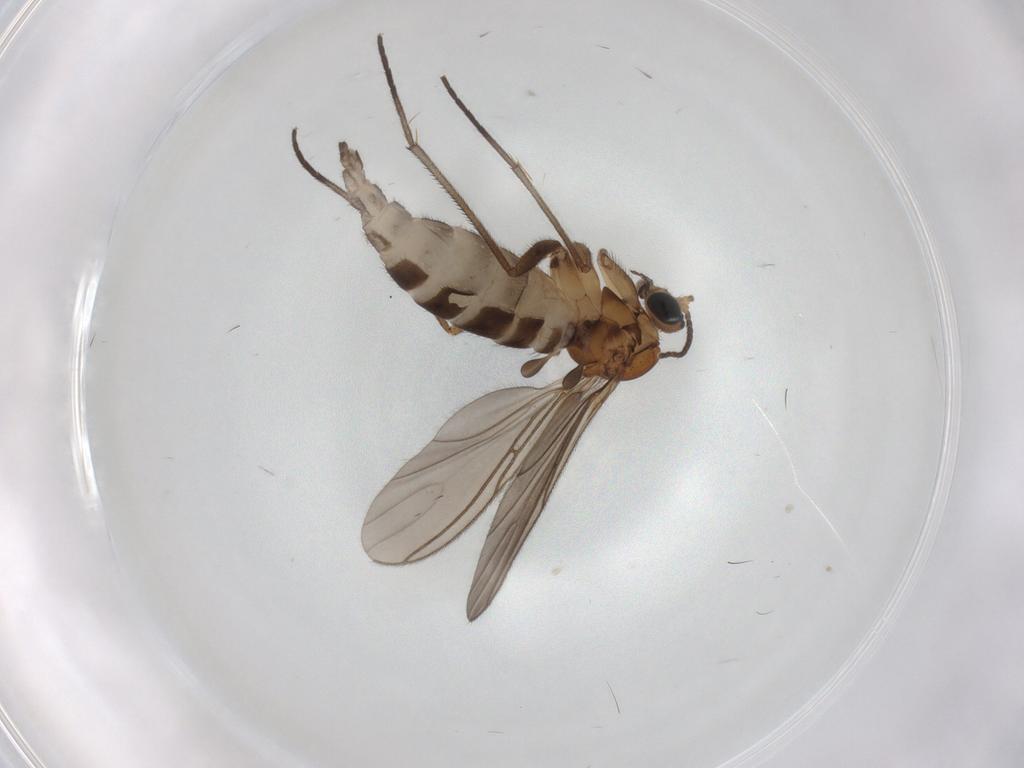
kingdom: Animalia
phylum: Arthropoda
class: Insecta
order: Diptera
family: Sciaridae
